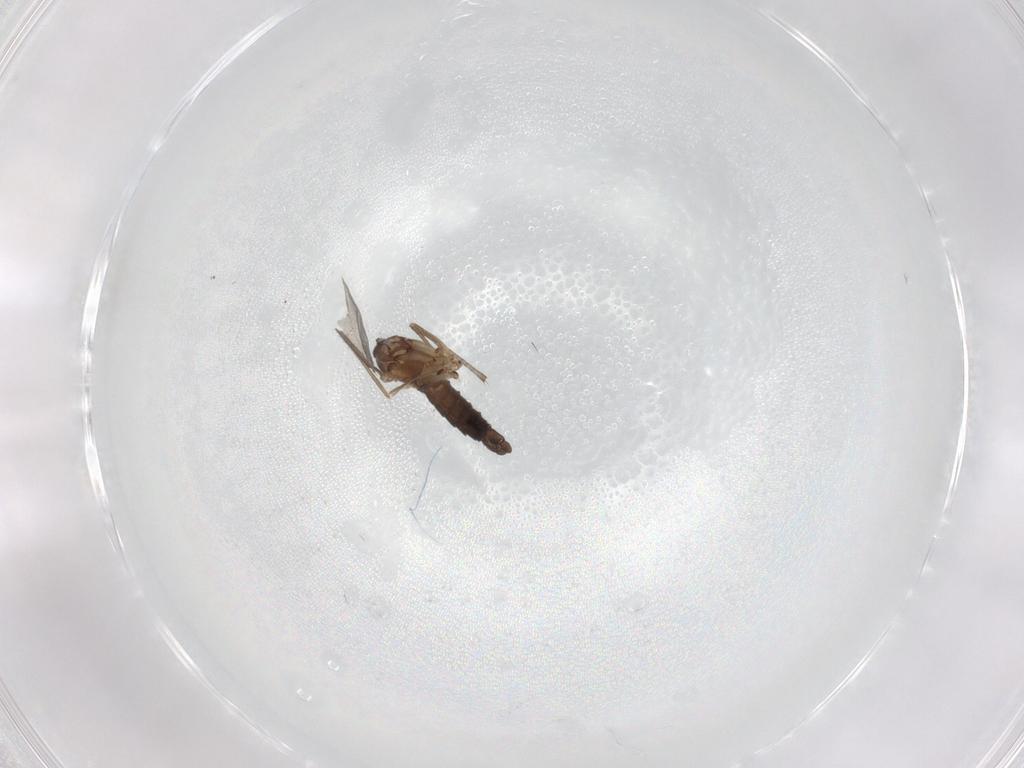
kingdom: Animalia
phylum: Arthropoda
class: Insecta
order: Diptera
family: Sciaridae
